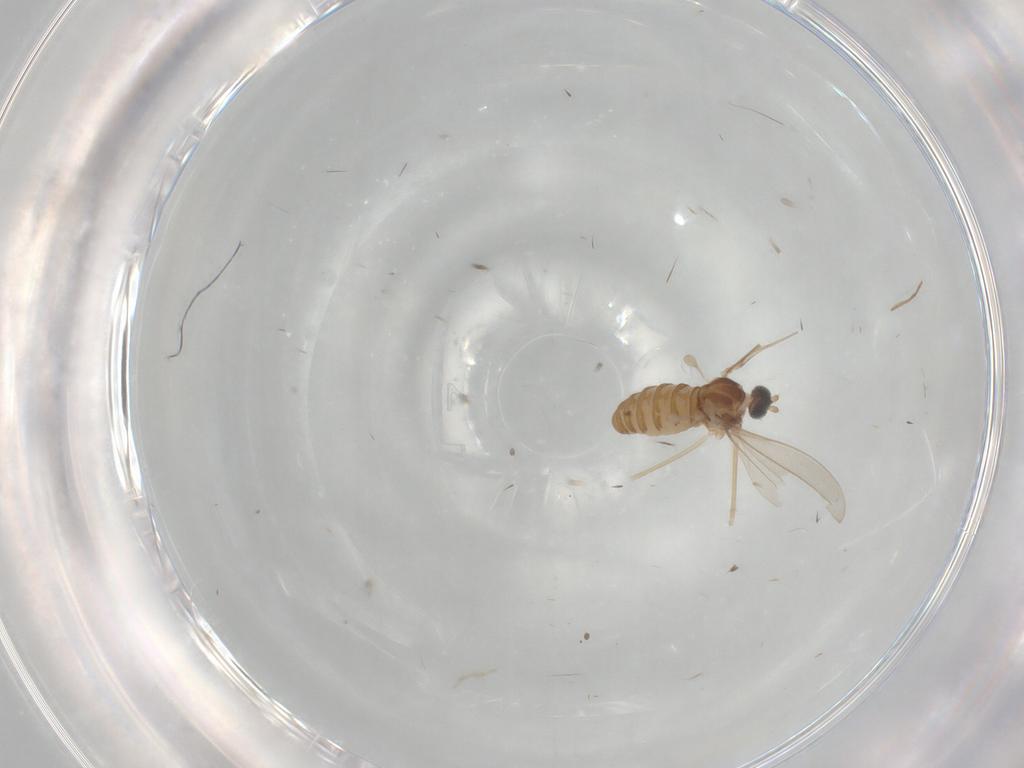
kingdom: Animalia
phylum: Arthropoda
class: Insecta
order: Diptera
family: Cecidomyiidae
